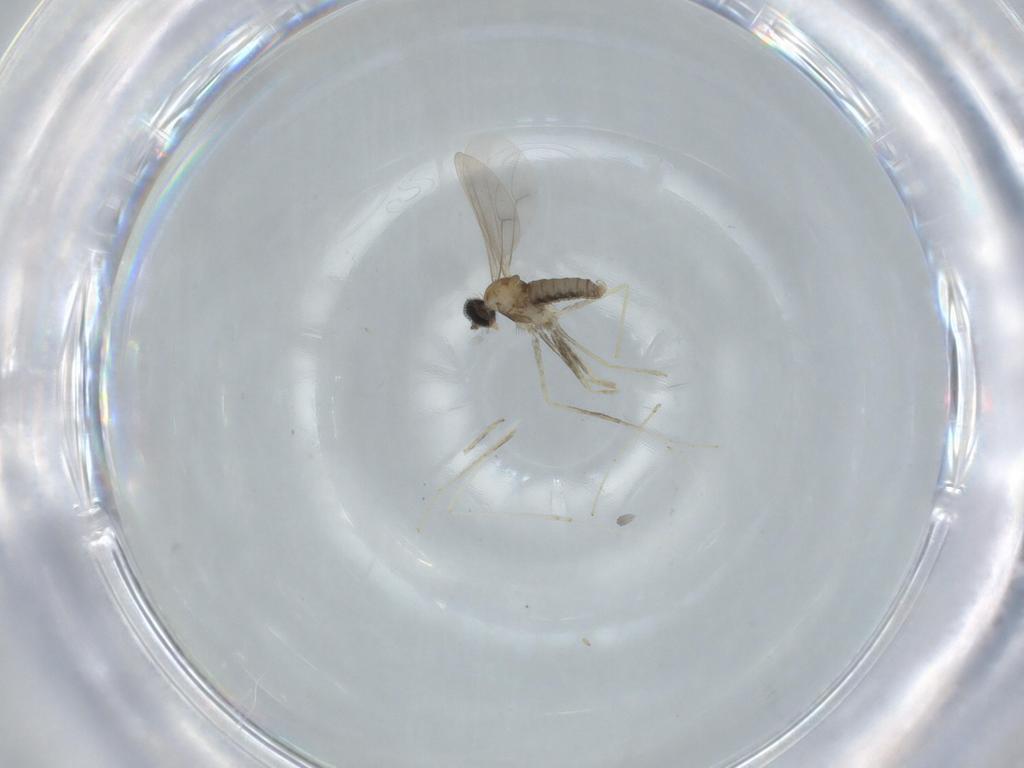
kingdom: Animalia
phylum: Arthropoda
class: Insecta
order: Diptera
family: Cecidomyiidae
